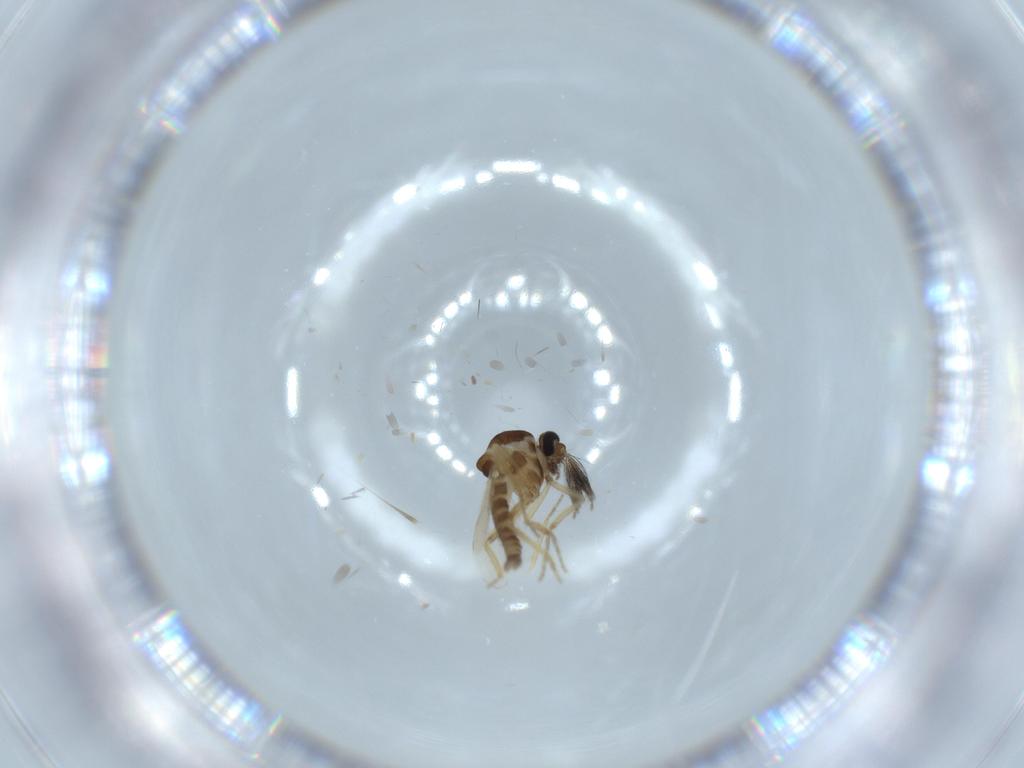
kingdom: Animalia
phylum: Arthropoda
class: Insecta
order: Diptera
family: Ceratopogonidae
